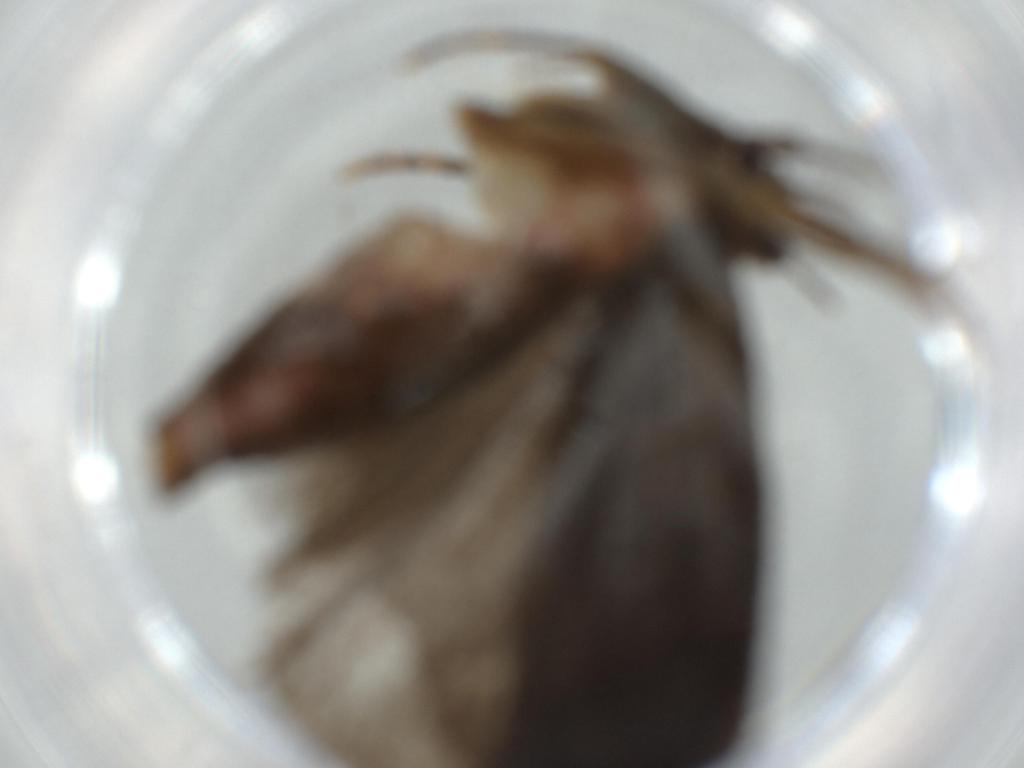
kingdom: Animalia
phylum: Arthropoda
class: Insecta
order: Lepidoptera
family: Autostichidae
